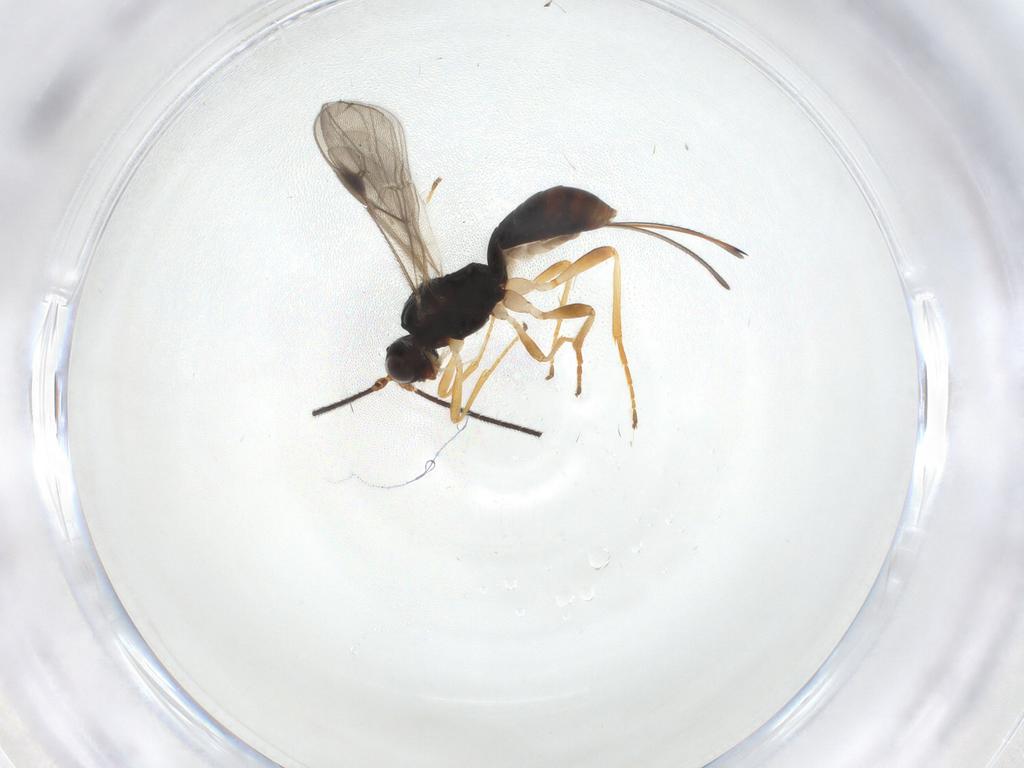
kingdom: Animalia
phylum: Arthropoda
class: Insecta
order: Hymenoptera
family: Braconidae
